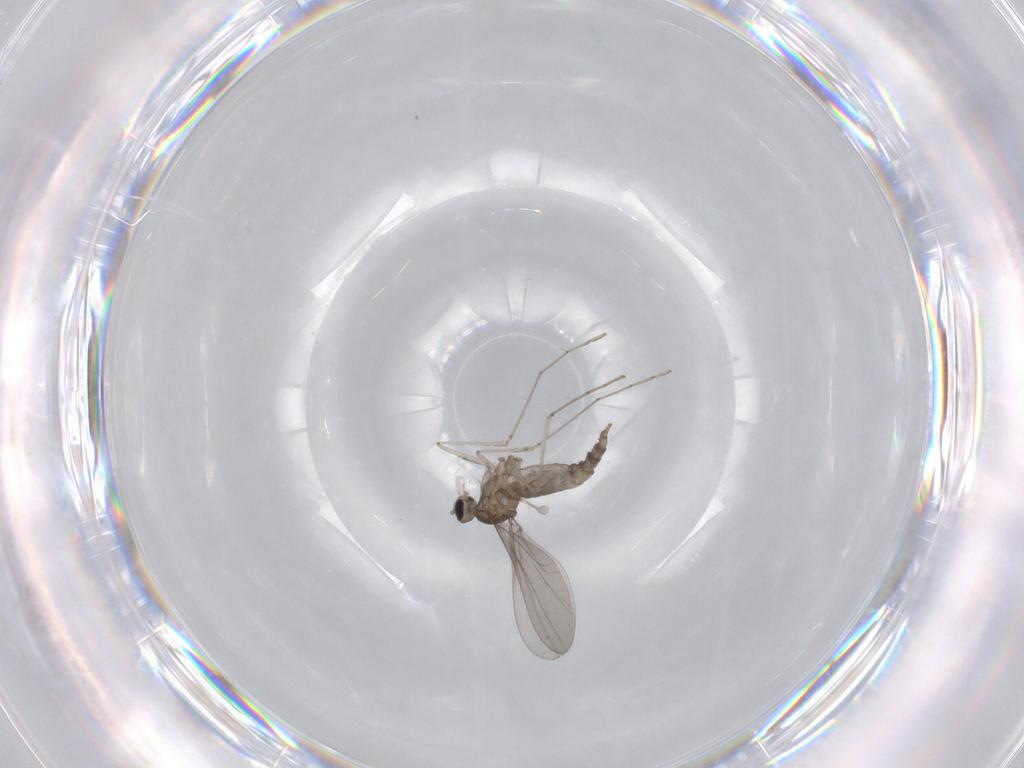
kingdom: Animalia
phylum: Arthropoda
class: Insecta
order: Diptera
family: Cecidomyiidae
